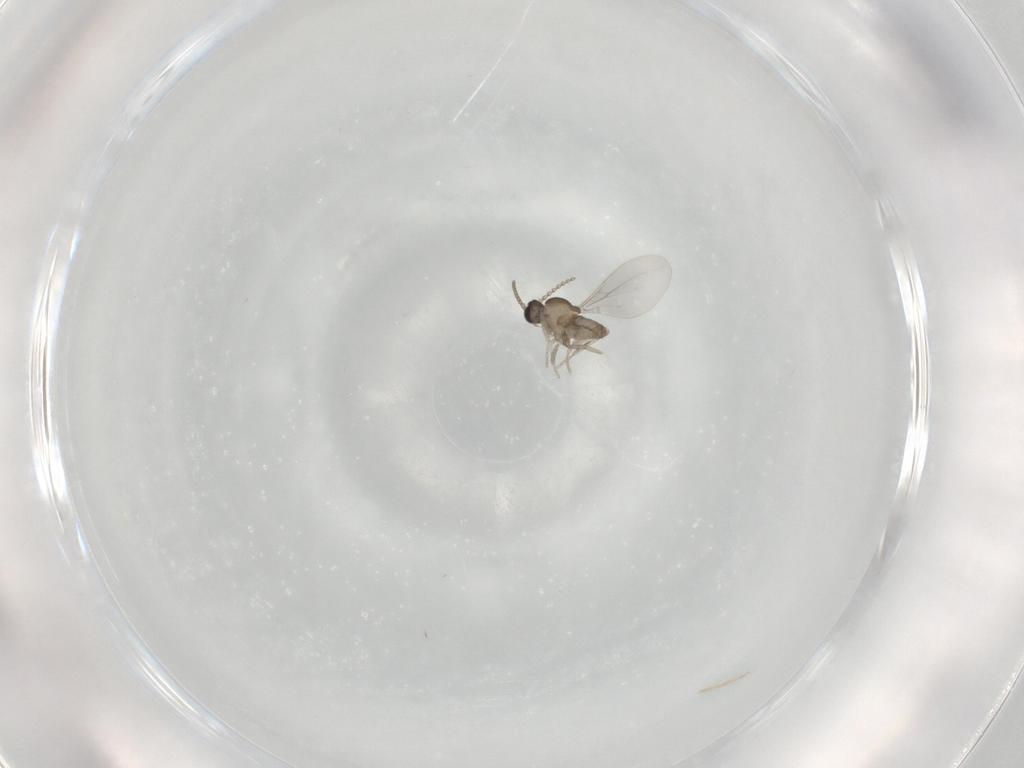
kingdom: Animalia
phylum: Arthropoda
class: Insecta
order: Diptera
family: Cecidomyiidae
